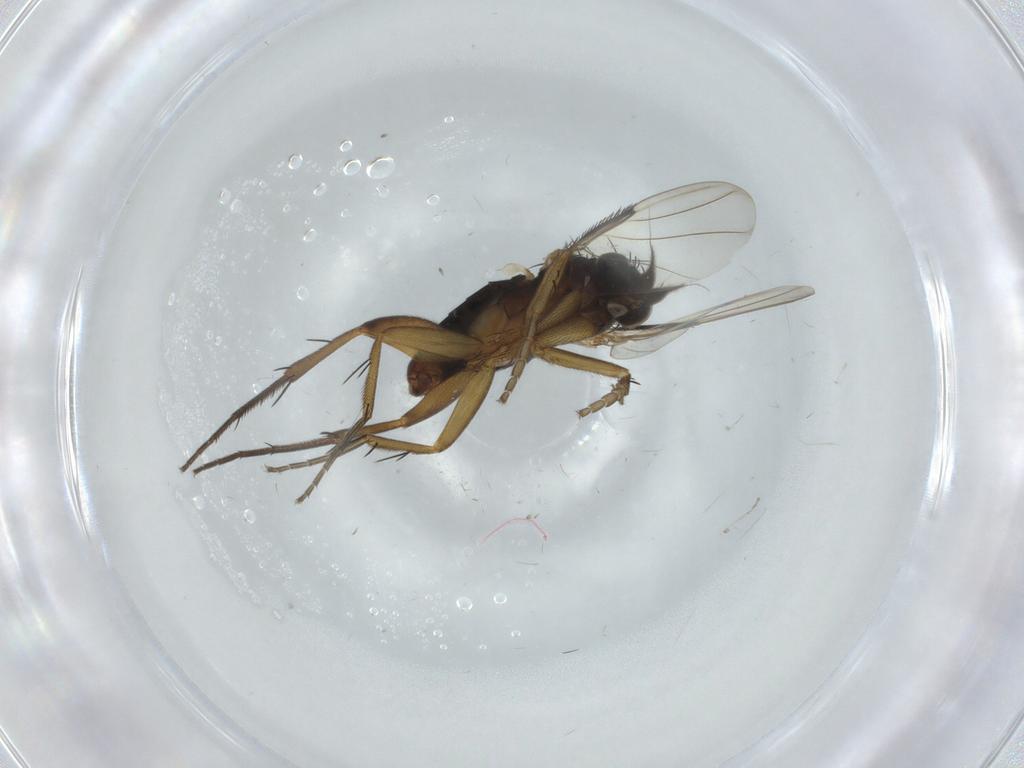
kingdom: Animalia
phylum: Arthropoda
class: Insecta
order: Diptera
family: Phoridae
